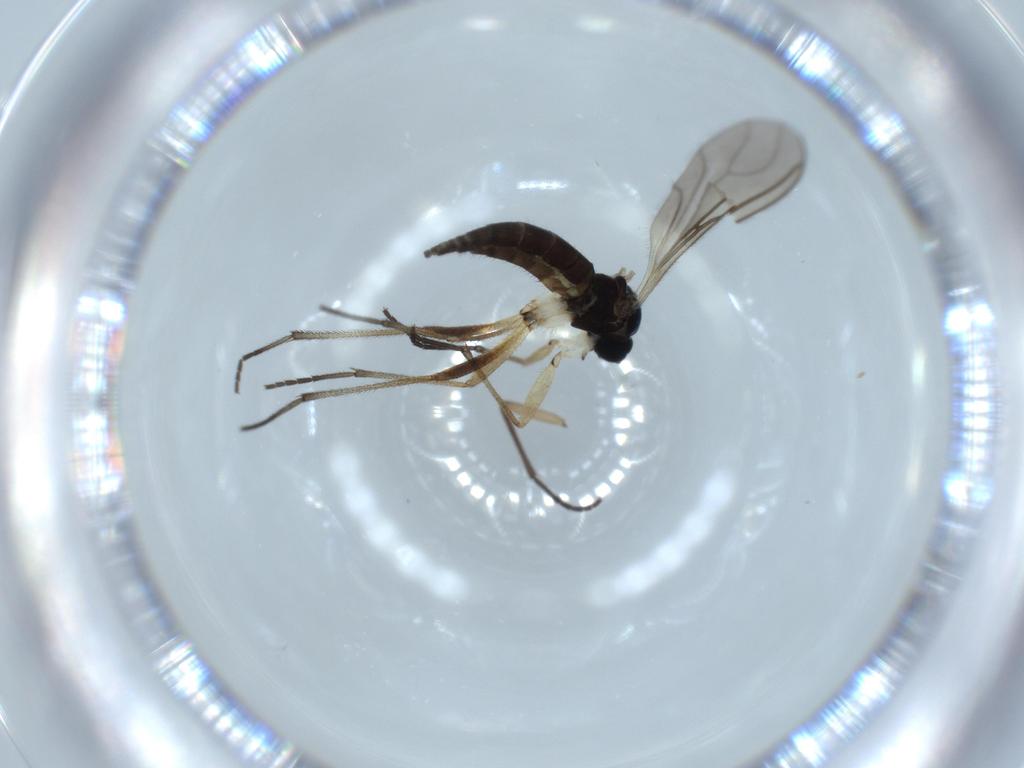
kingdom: Animalia
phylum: Arthropoda
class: Insecta
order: Diptera
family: Sciaridae
